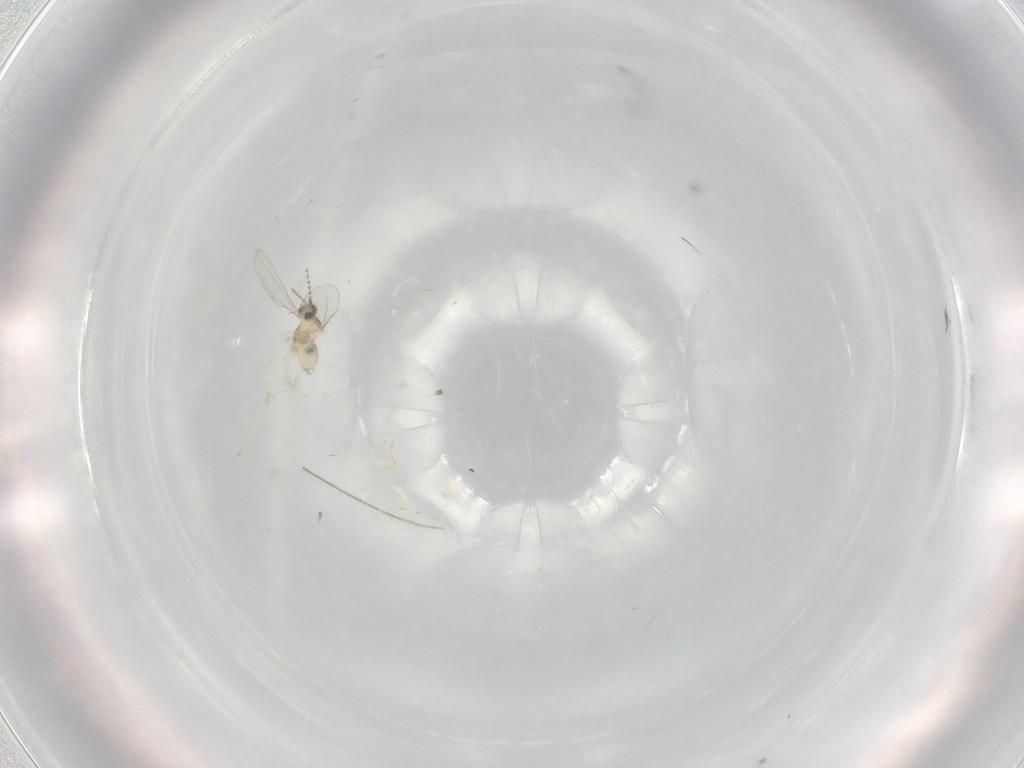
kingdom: Animalia
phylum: Arthropoda
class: Insecta
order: Diptera
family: Cecidomyiidae
